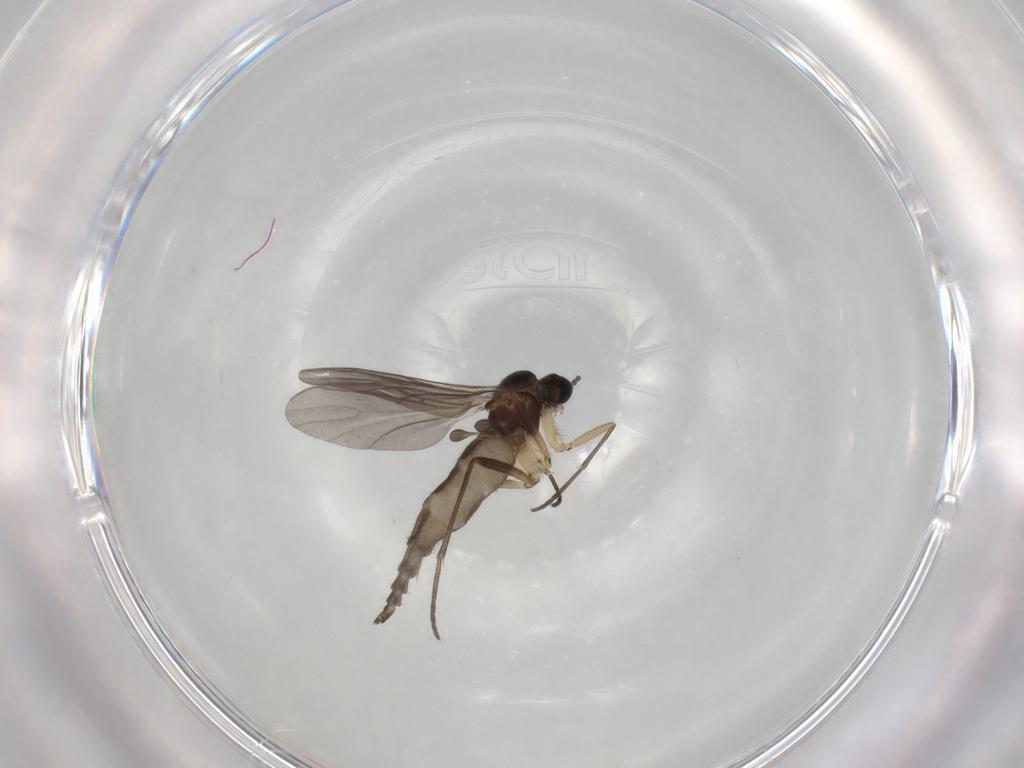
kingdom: Animalia
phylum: Arthropoda
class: Insecta
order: Diptera
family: Sciaridae
